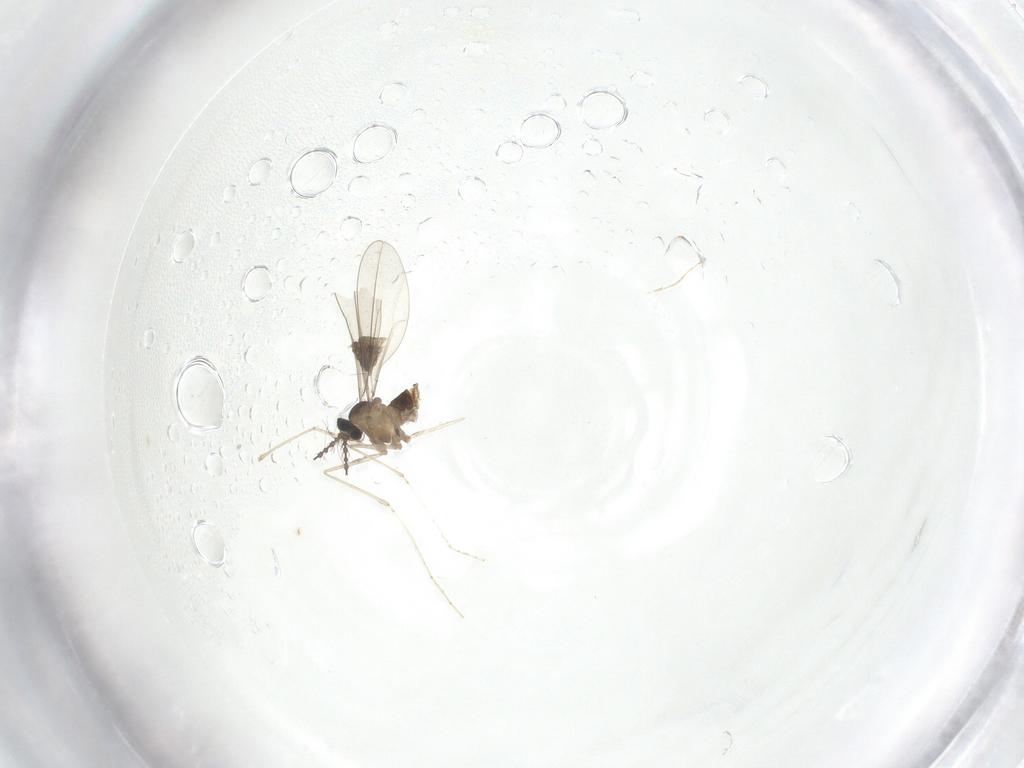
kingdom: Animalia
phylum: Arthropoda
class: Insecta
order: Diptera
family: Cecidomyiidae
